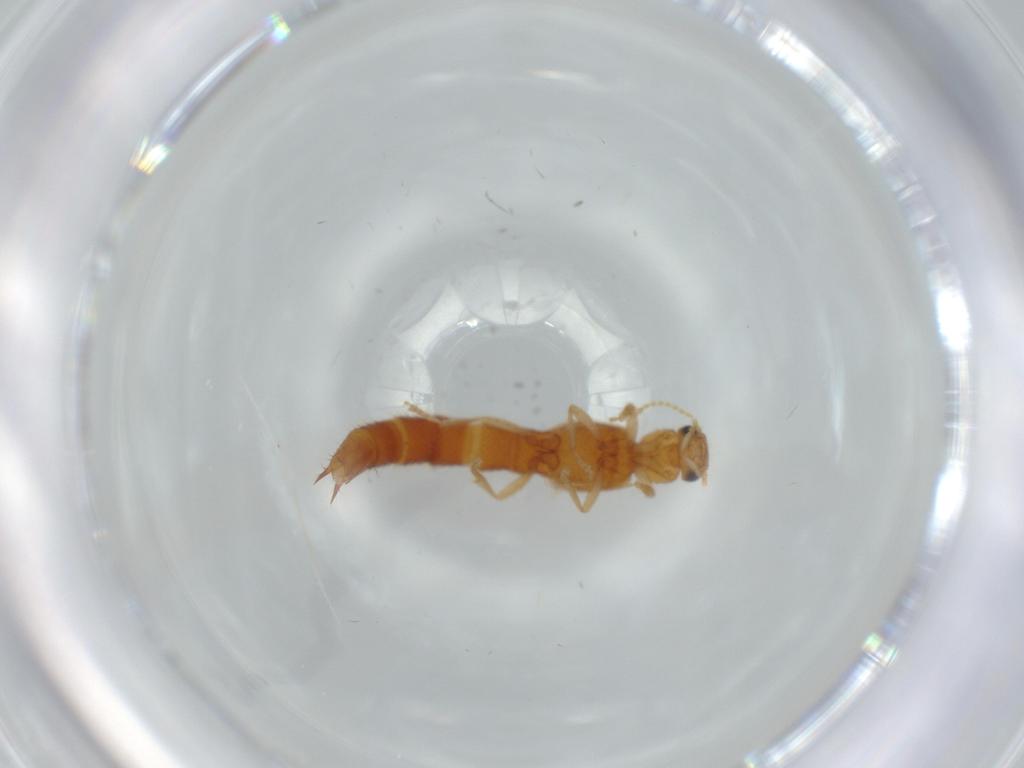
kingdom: Animalia
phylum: Arthropoda
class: Insecta
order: Coleoptera
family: Staphylinidae
